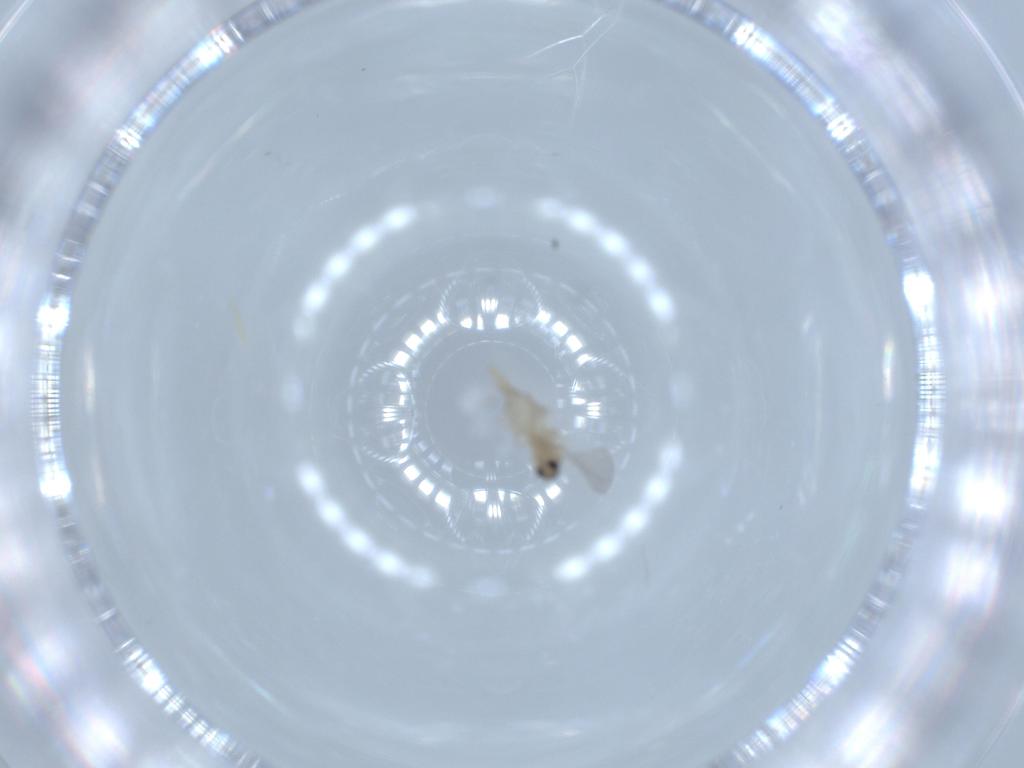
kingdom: Animalia
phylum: Arthropoda
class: Insecta
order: Diptera
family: Cecidomyiidae
